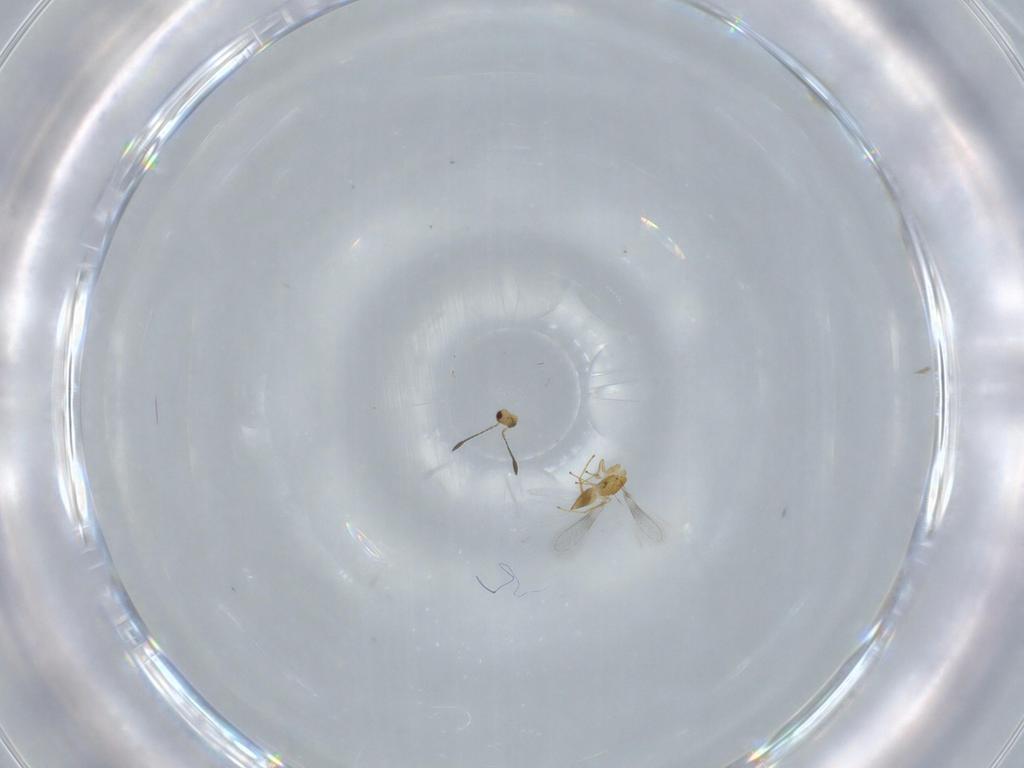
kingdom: Animalia
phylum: Arthropoda
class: Insecta
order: Hymenoptera
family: Mymaridae
